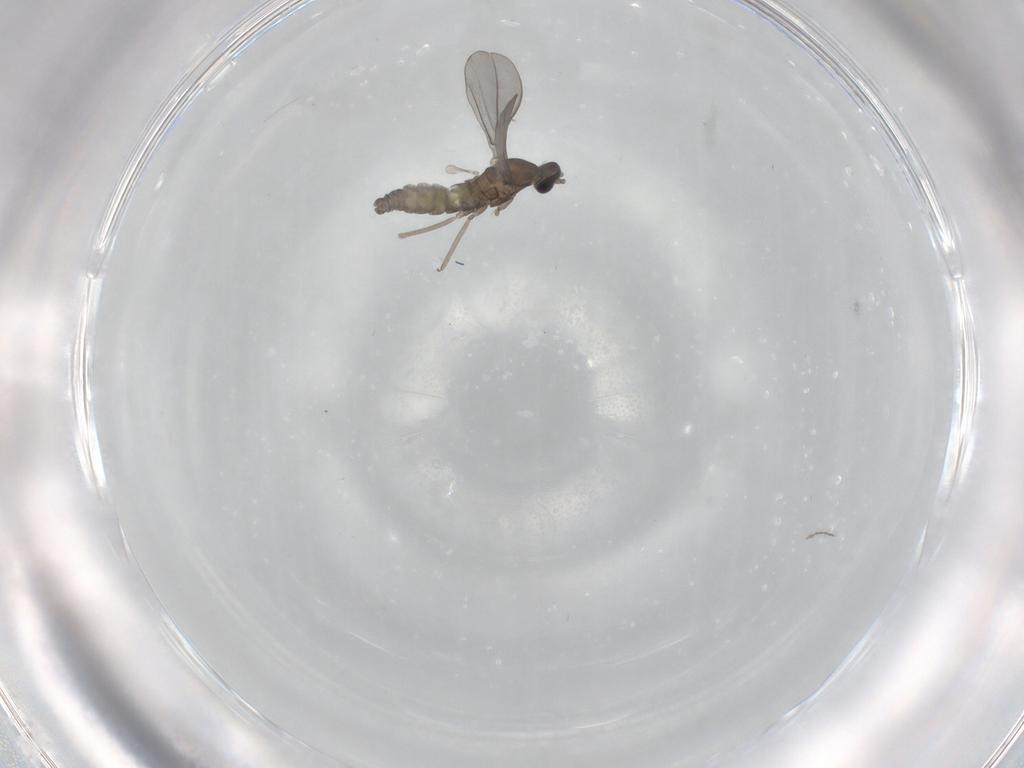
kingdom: Animalia
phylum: Arthropoda
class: Insecta
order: Diptera
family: Cecidomyiidae
